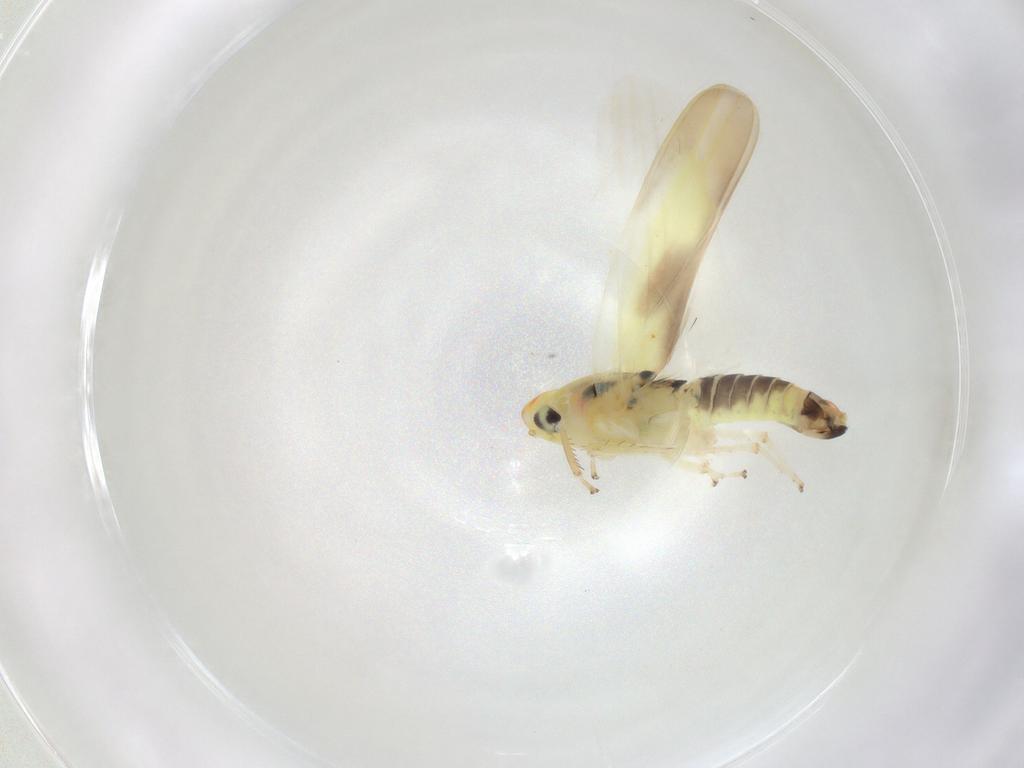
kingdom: Animalia
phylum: Arthropoda
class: Insecta
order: Hemiptera
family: Cicadellidae
